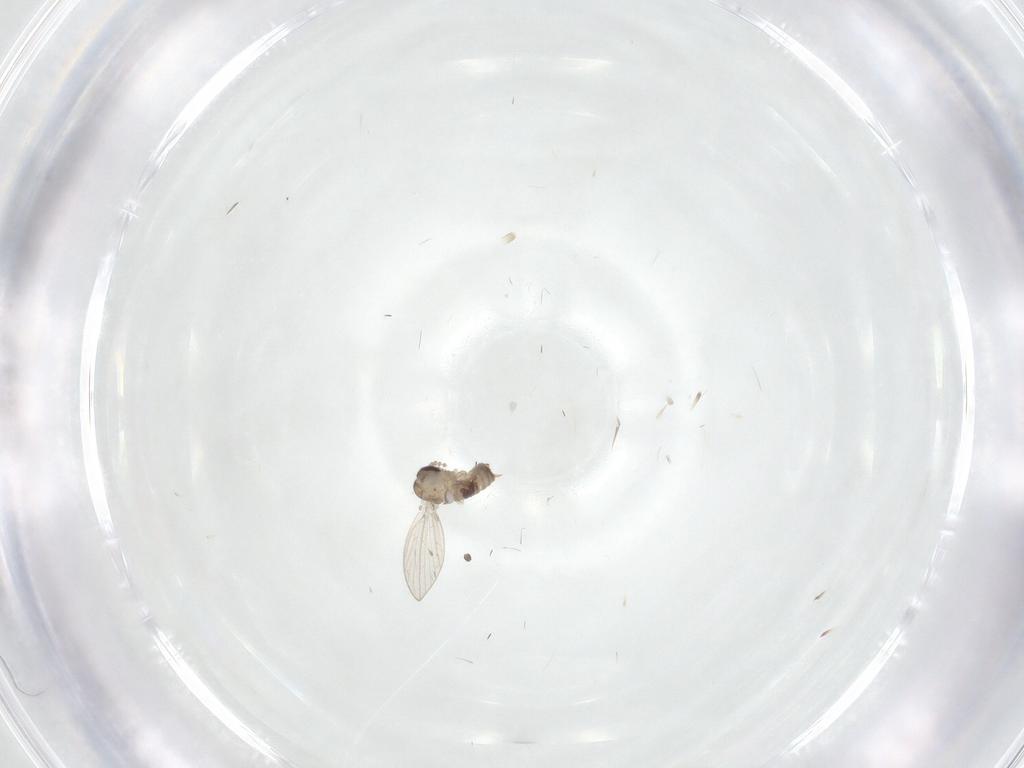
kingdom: Animalia
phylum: Arthropoda
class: Insecta
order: Diptera
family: Psychodidae
